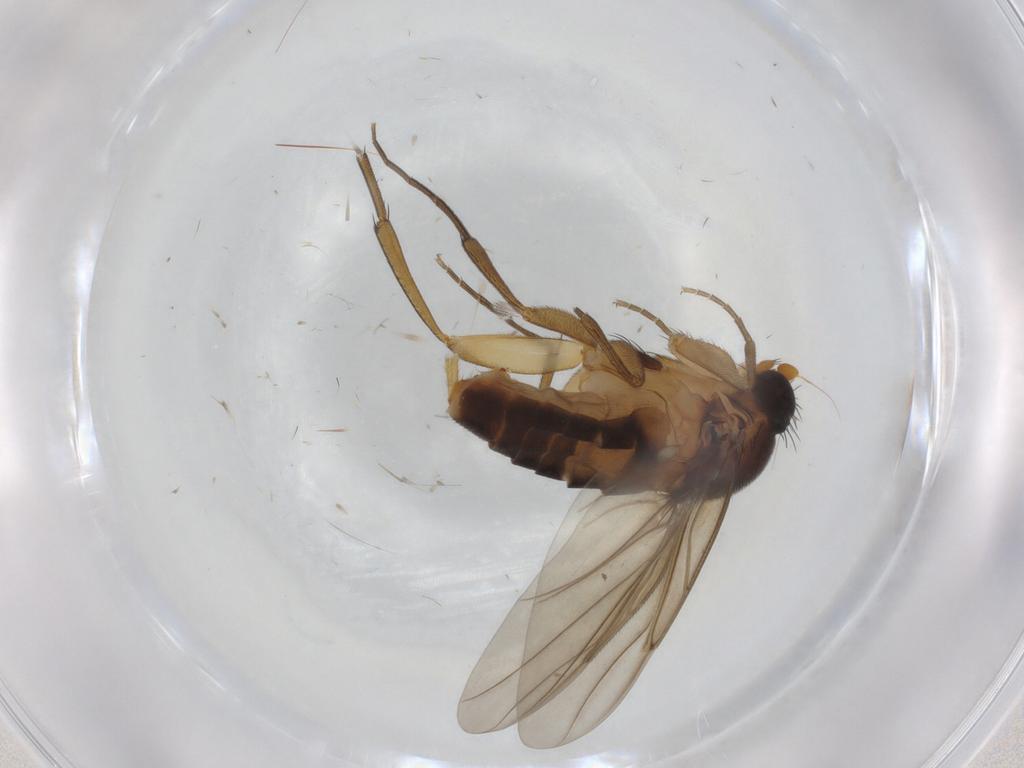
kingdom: Animalia
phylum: Arthropoda
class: Insecta
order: Diptera
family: Phoridae
